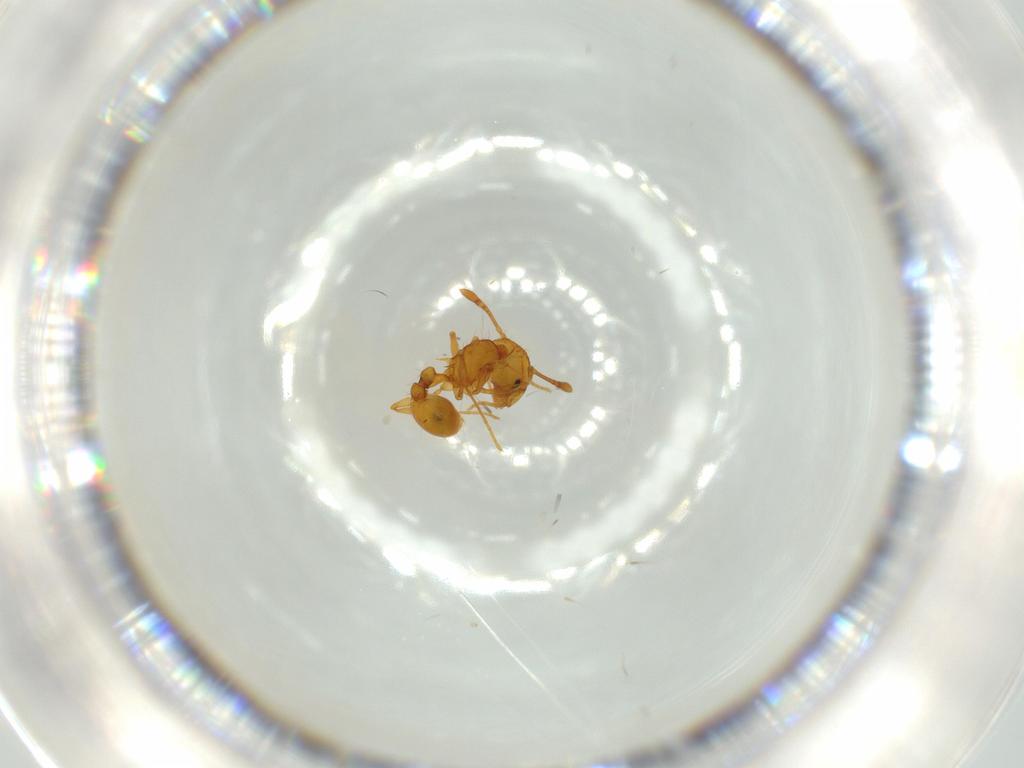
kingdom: Animalia
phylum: Arthropoda
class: Insecta
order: Hymenoptera
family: Formicidae
